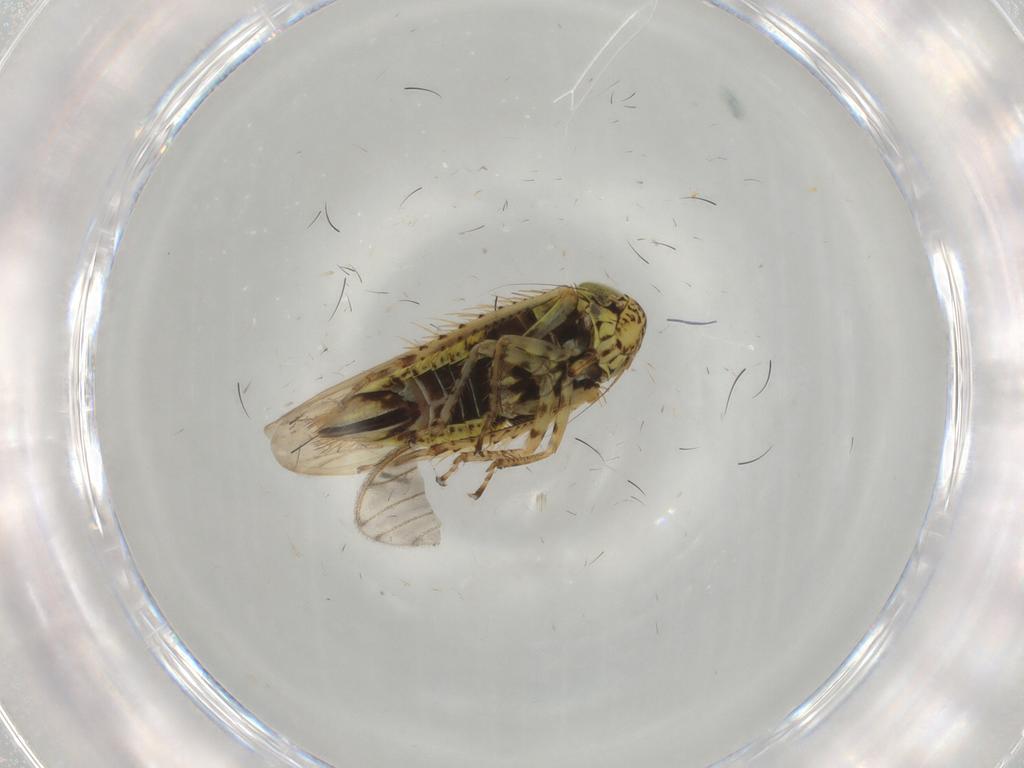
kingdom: Animalia
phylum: Arthropoda
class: Insecta
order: Hemiptera
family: Cicadellidae
